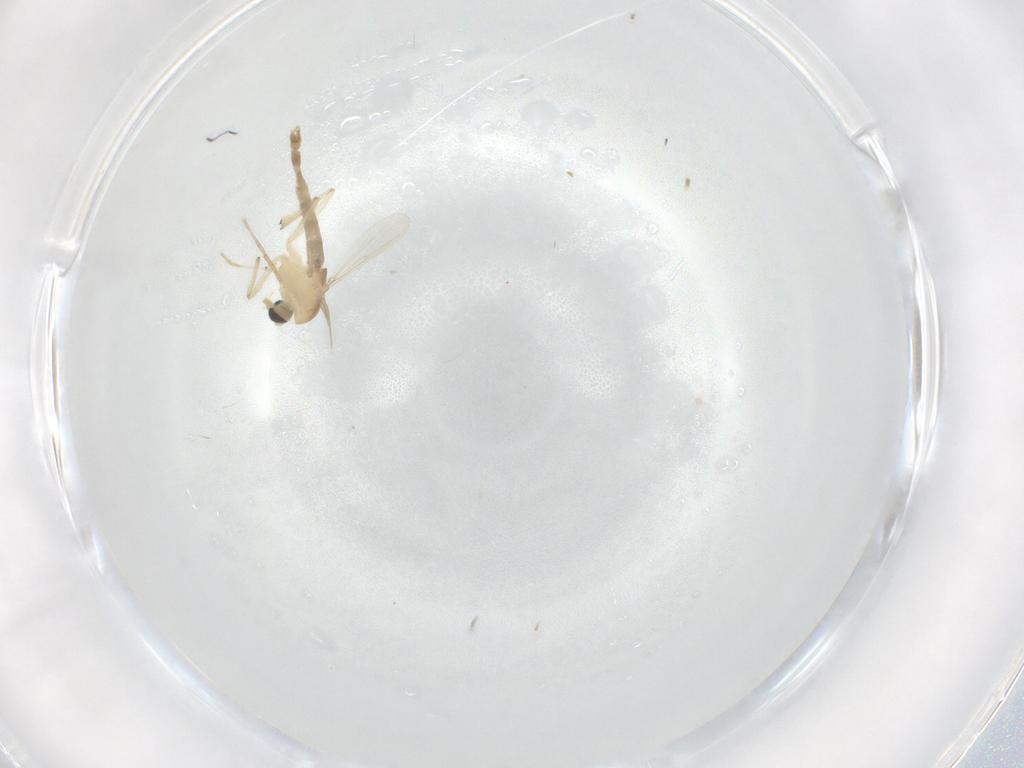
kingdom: Animalia
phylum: Arthropoda
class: Insecta
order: Diptera
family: Chironomidae
